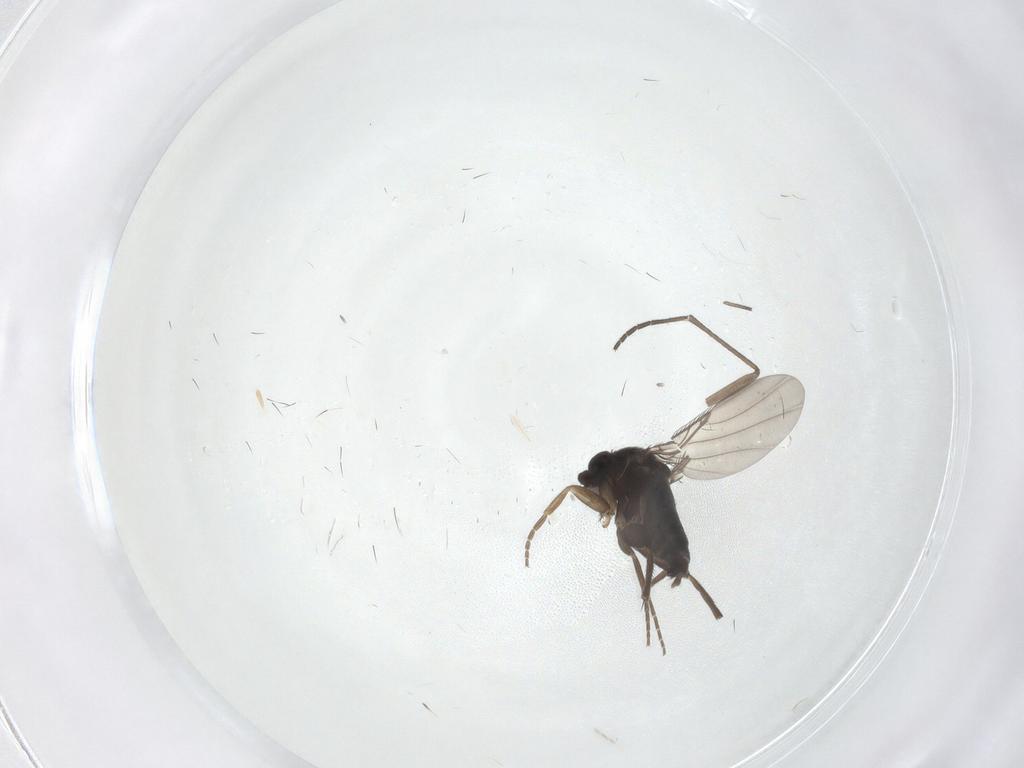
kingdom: Animalia
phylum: Arthropoda
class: Insecta
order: Diptera
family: Phoridae
